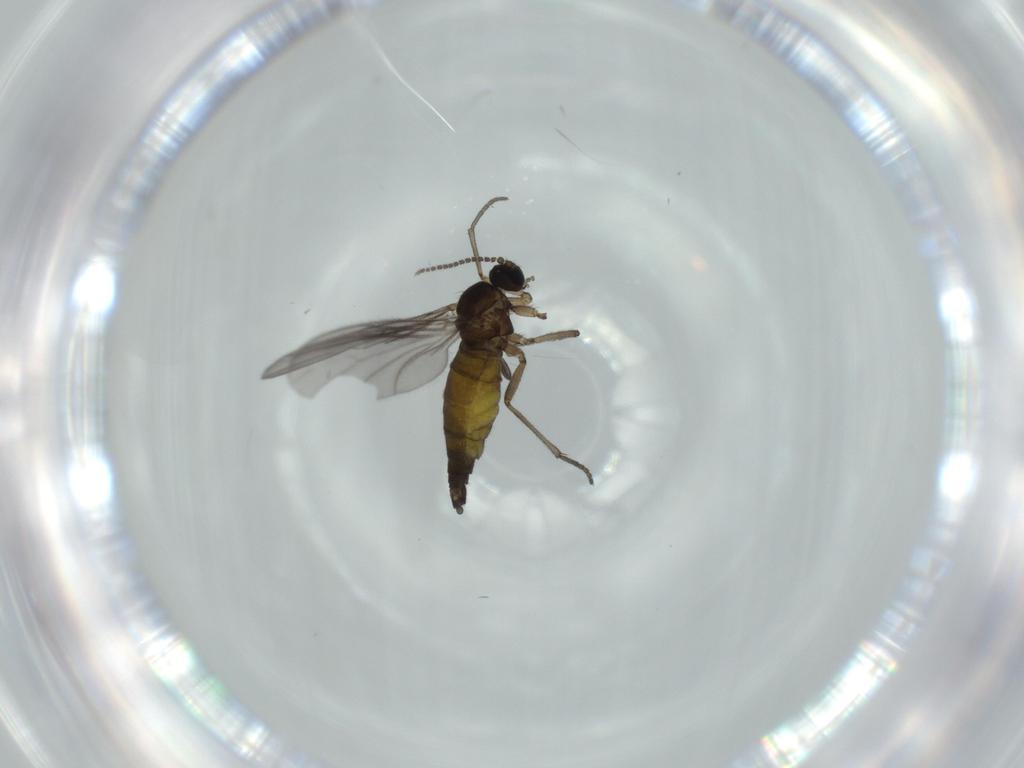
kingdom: Animalia
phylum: Arthropoda
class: Insecta
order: Diptera
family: Sciaridae
